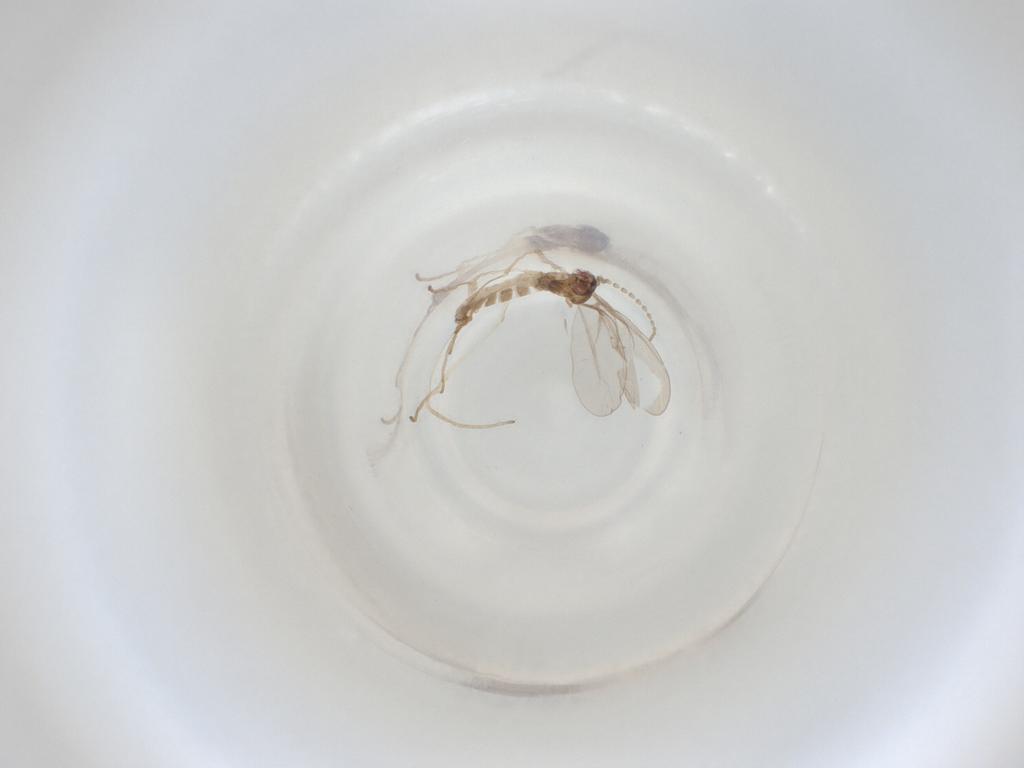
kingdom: Animalia
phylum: Arthropoda
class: Insecta
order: Diptera
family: Cecidomyiidae
